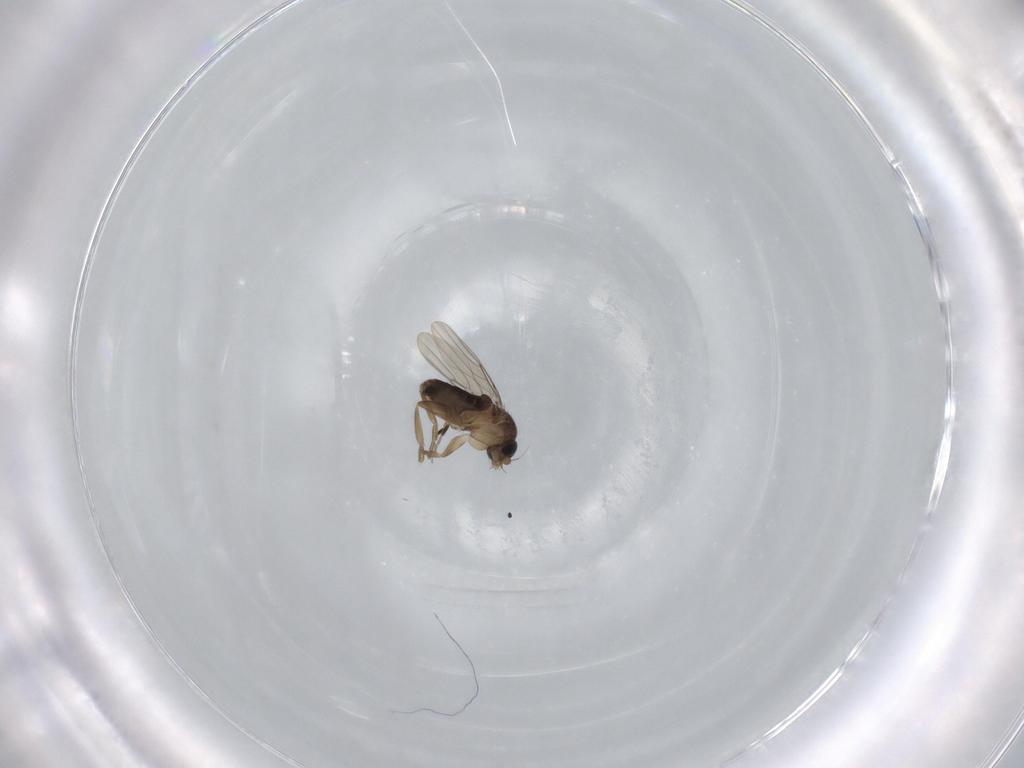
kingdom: Animalia
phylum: Arthropoda
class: Insecta
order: Diptera
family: Phoridae
